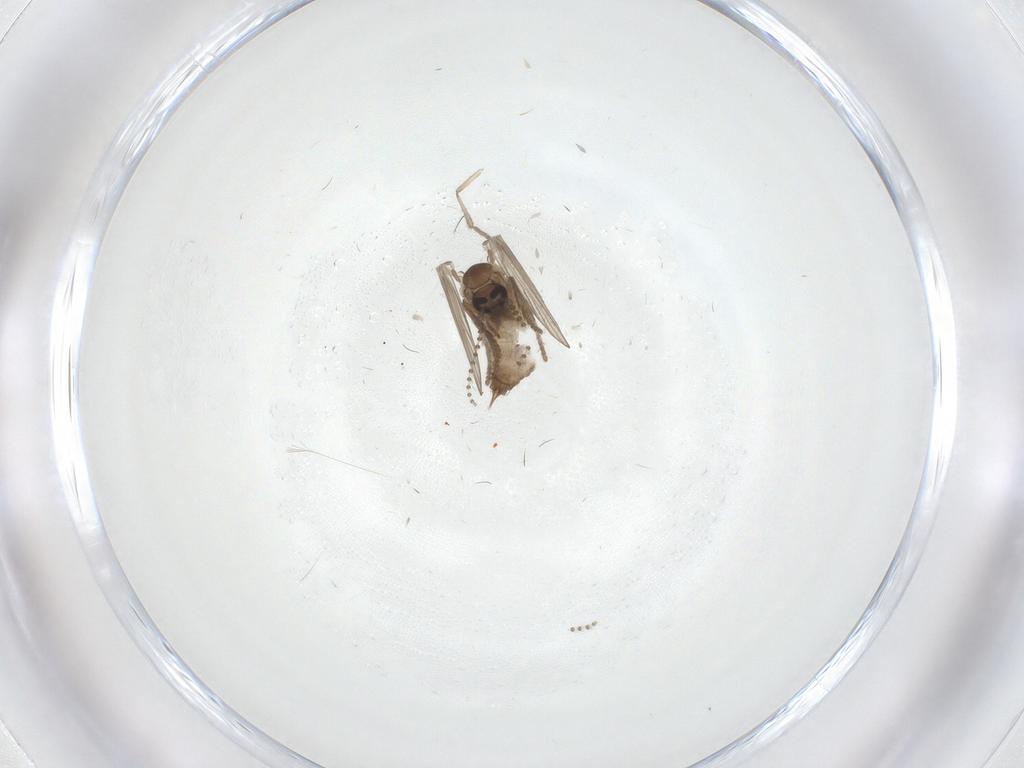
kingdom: Animalia
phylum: Arthropoda
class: Insecta
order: Diptera
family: Psychodidae
